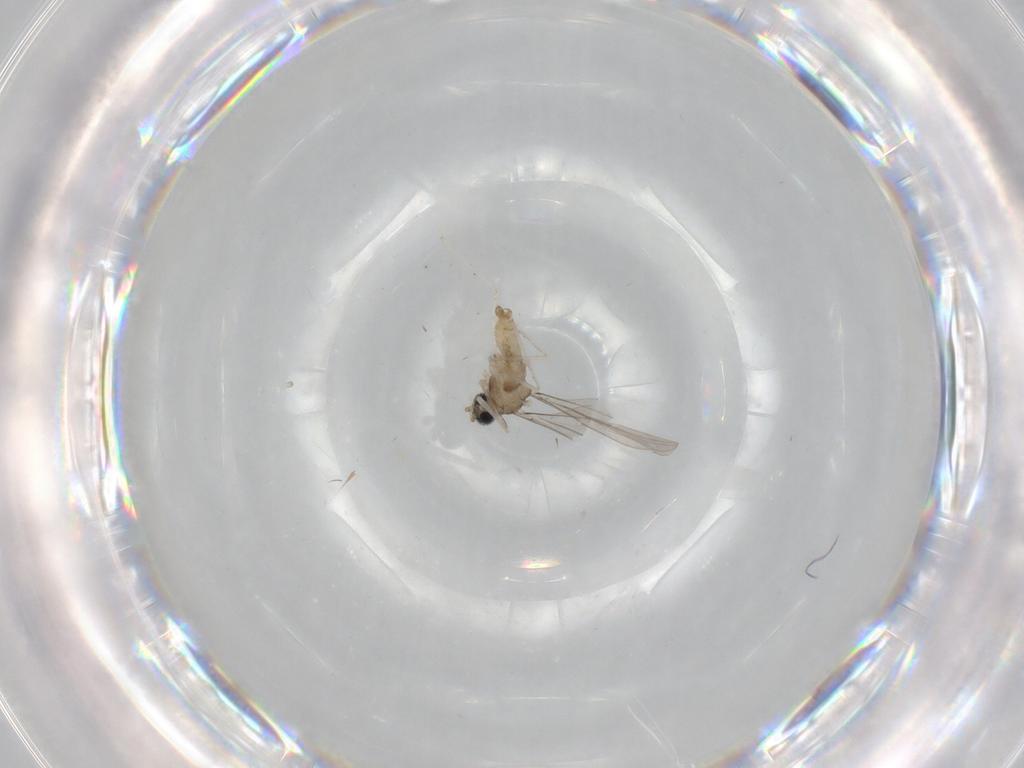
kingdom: Animalia
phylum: Arthropoda
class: Insecta
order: Diptera
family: Cecidomyiidae
